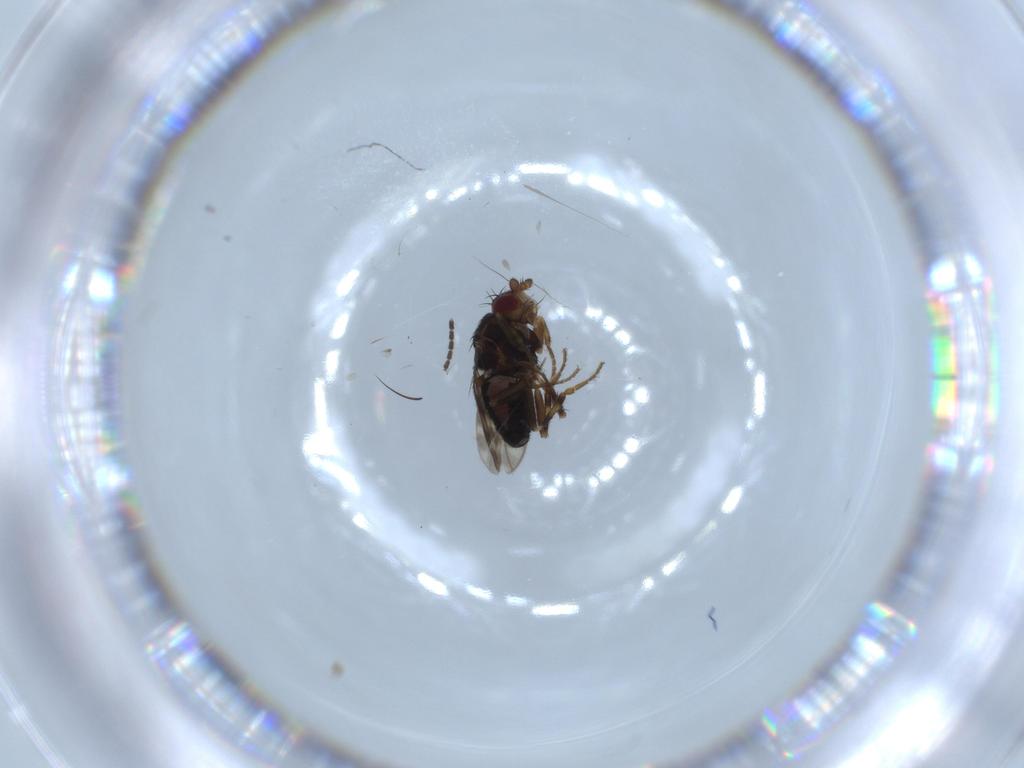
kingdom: Animalia
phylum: Arthropoda
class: Insecta
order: Diptera
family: Sphaeroceridae
